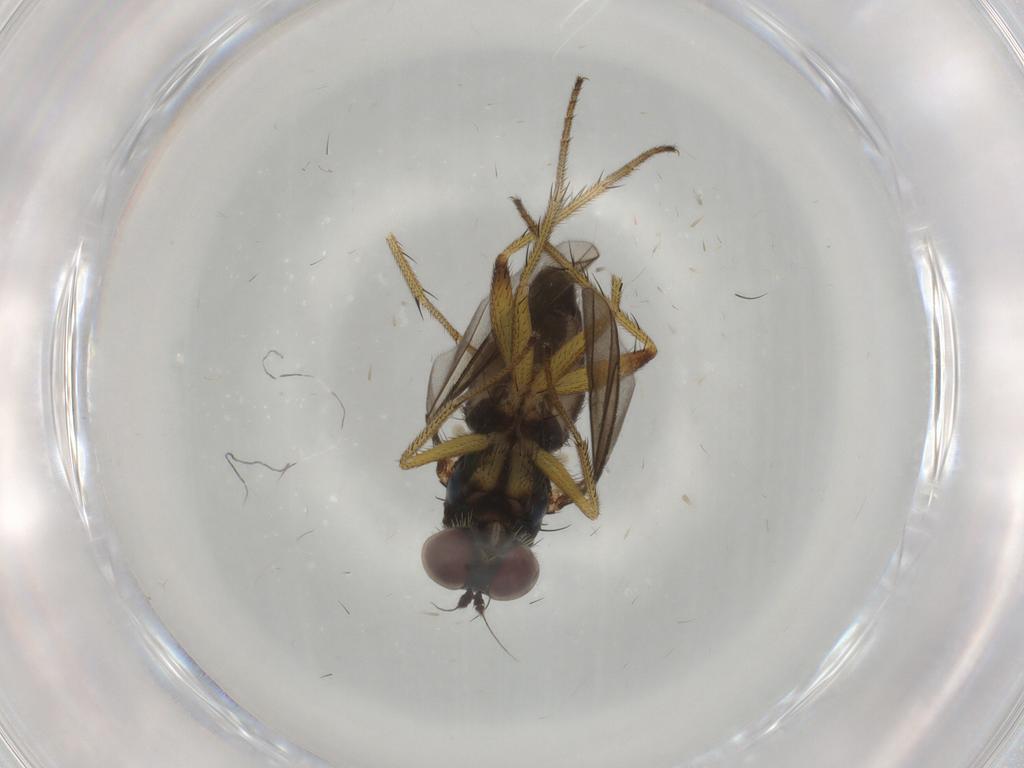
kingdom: Animalia
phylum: Arthropoda
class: Insecta
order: Diptera
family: Dolichopodidae
